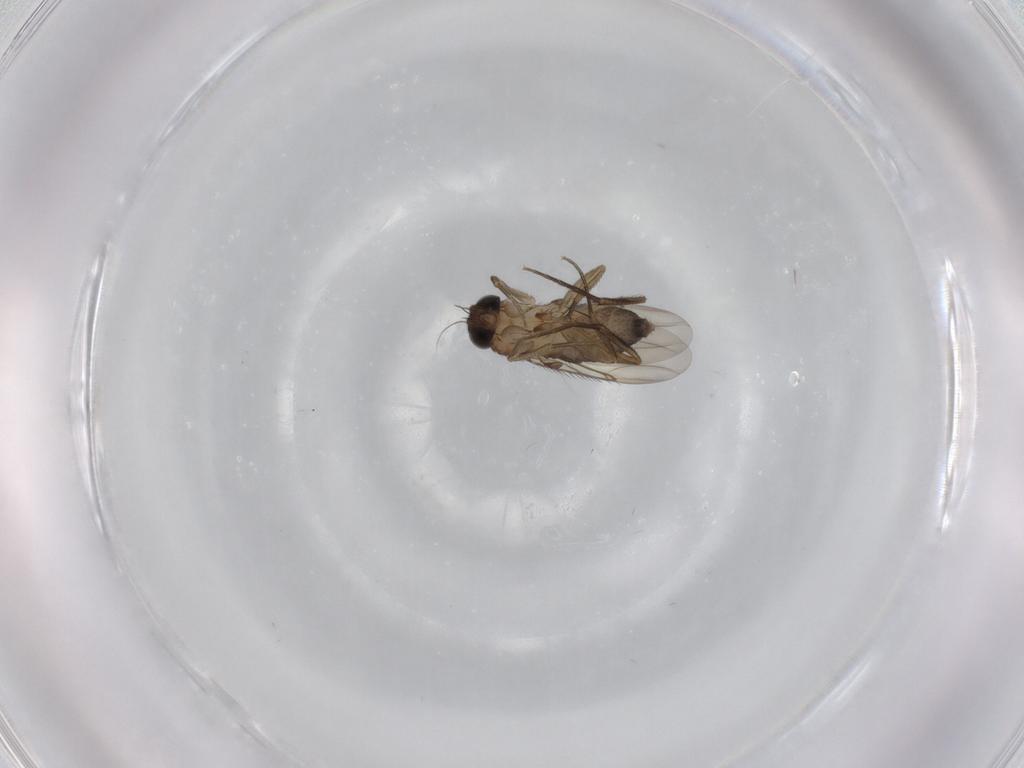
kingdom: Animalia
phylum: Arthropoda
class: Insecta
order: Diptera
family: Phoridae
